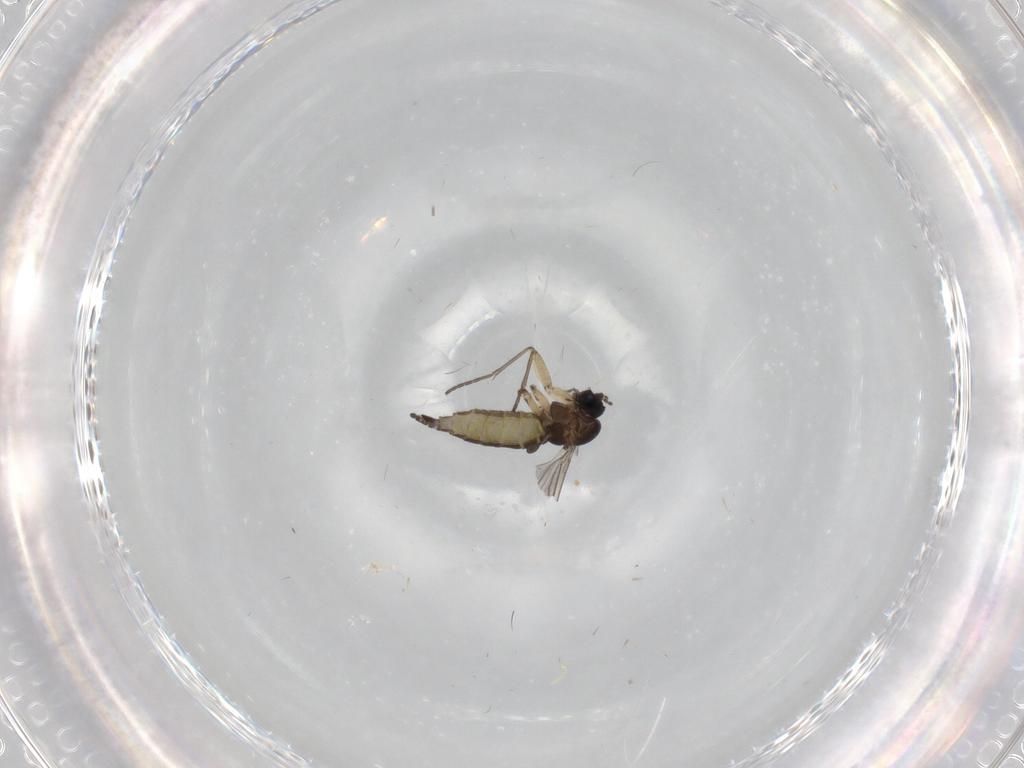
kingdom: Animalia
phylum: Arthropoda
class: Insecta
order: Diptera
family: Sciaridae
